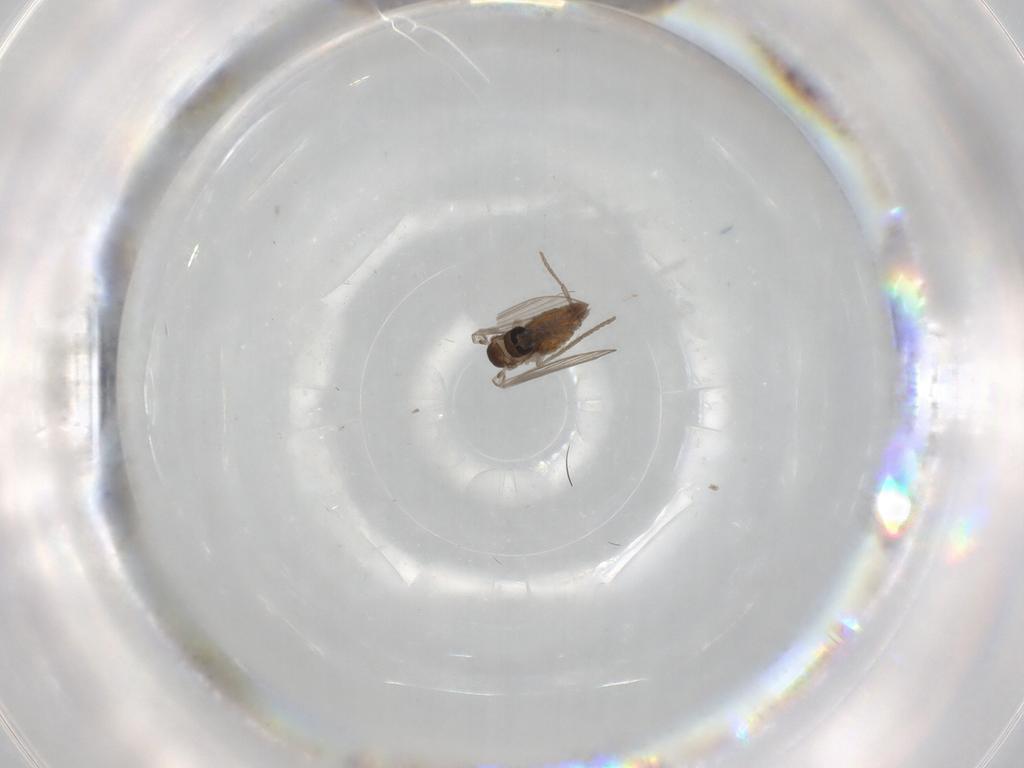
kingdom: Animalia
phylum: Arthropoda
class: Insecta
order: Diptera
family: Psychodidae
